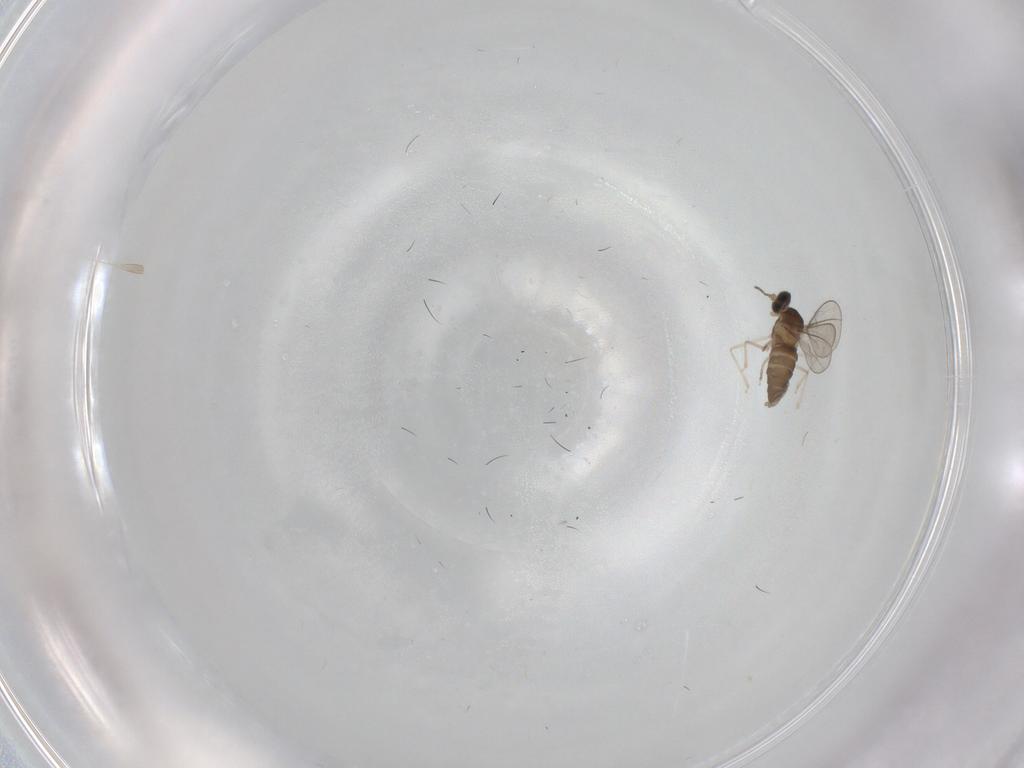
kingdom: Animalia
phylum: Arthropoda
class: Insecta
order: Diptera
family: Cecidomyiidae
